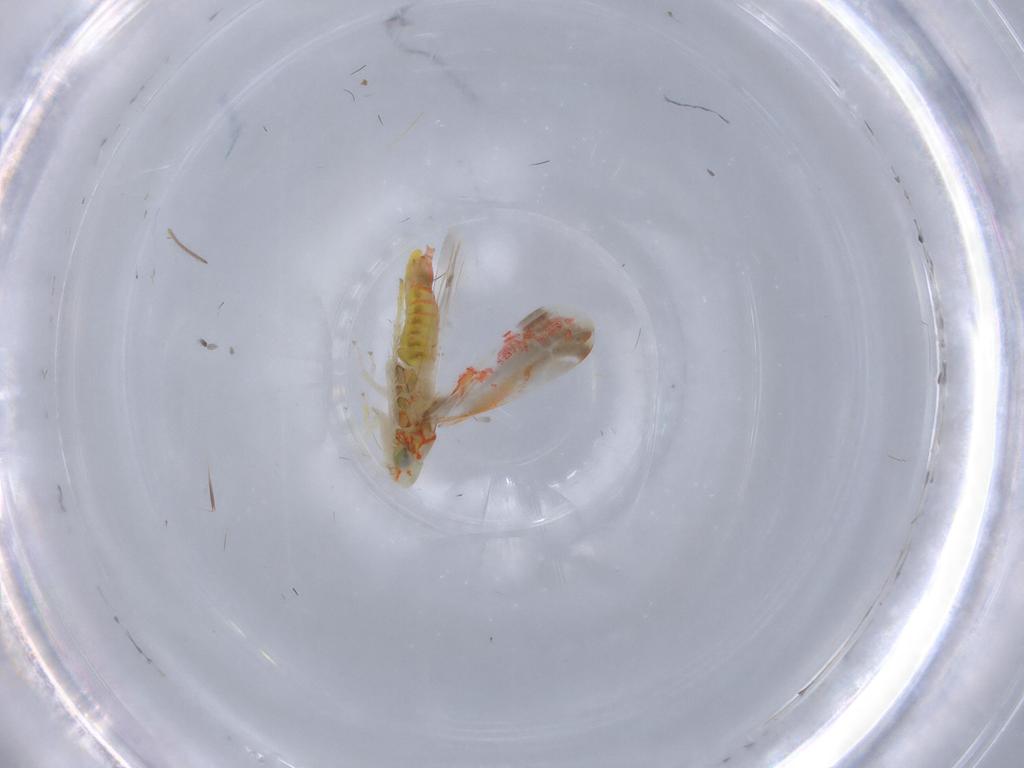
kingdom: Animalia
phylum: Arthropoda
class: Insecta
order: Hemiptera
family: Cicadellidae
